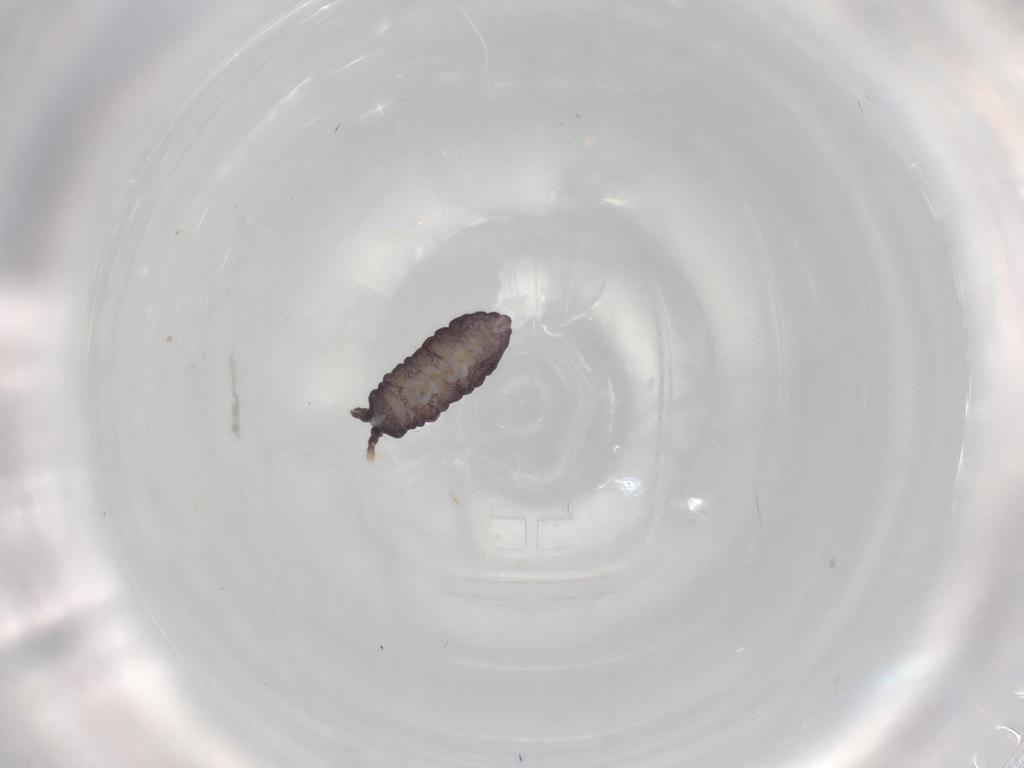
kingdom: Animalia
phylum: Arthropoda
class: Collembola
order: Poduromorpha
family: Neanuridae
